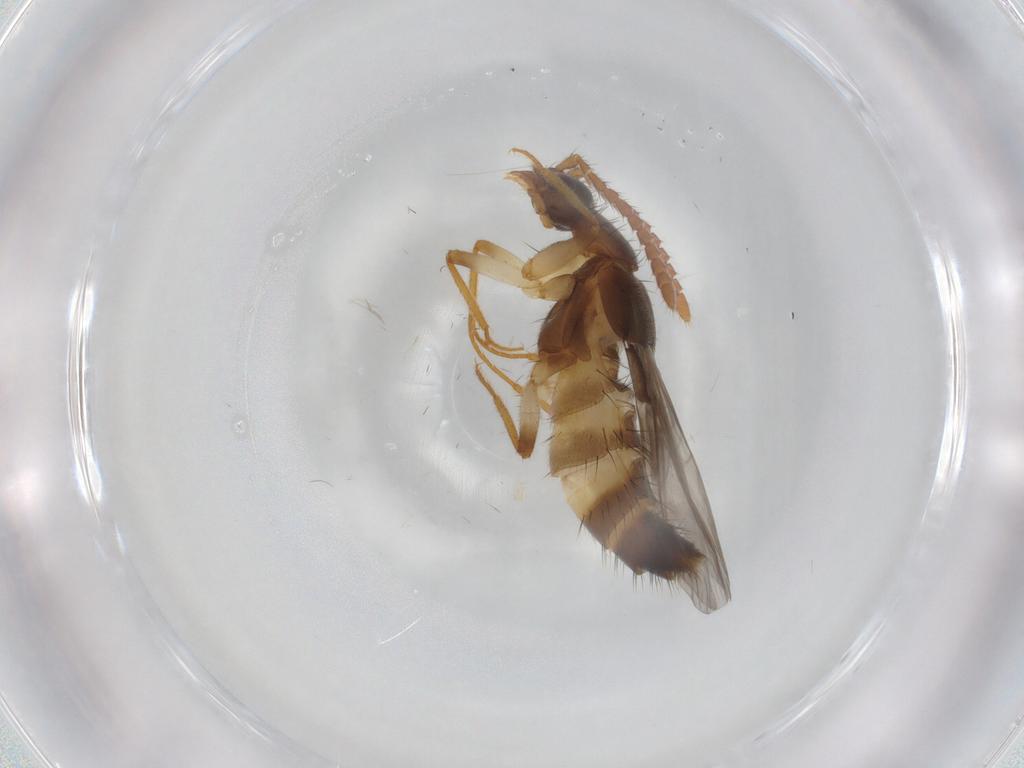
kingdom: Animalia
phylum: Arthropoda
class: Insecta
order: Coleoptera
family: Staphylinidae
